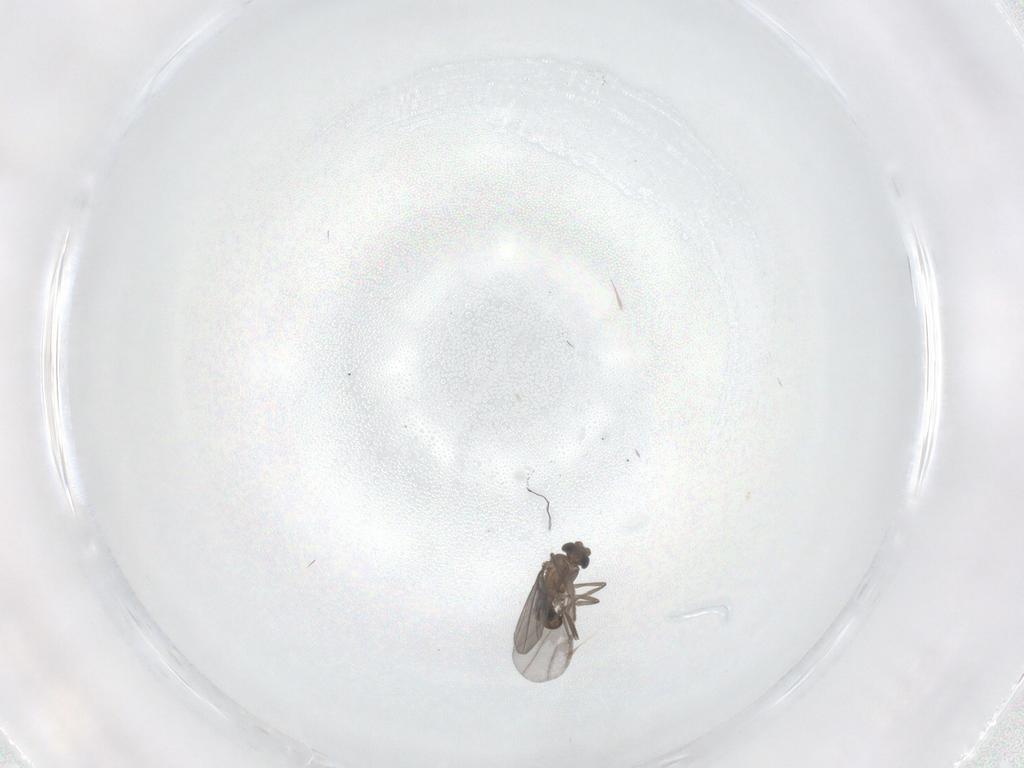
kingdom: Animalia
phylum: Arthropoda
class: Insecta
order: Diptera
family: Phoridae
